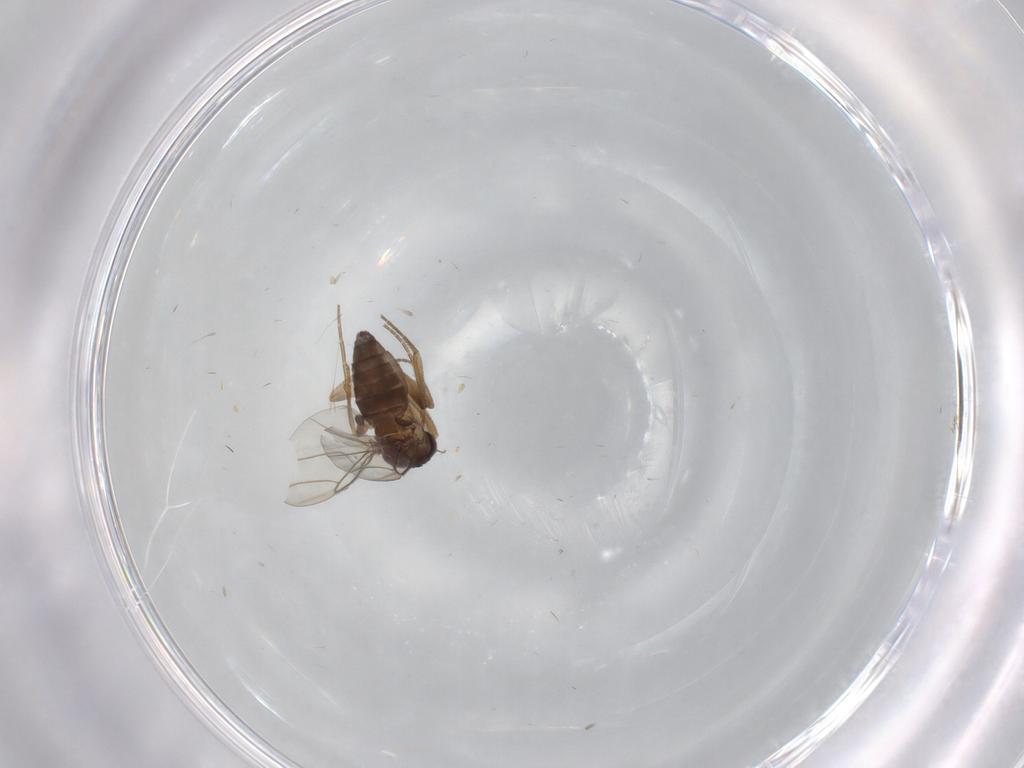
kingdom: Animalia
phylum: Arthropoda
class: Insecta
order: Diptera
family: Phoridae
